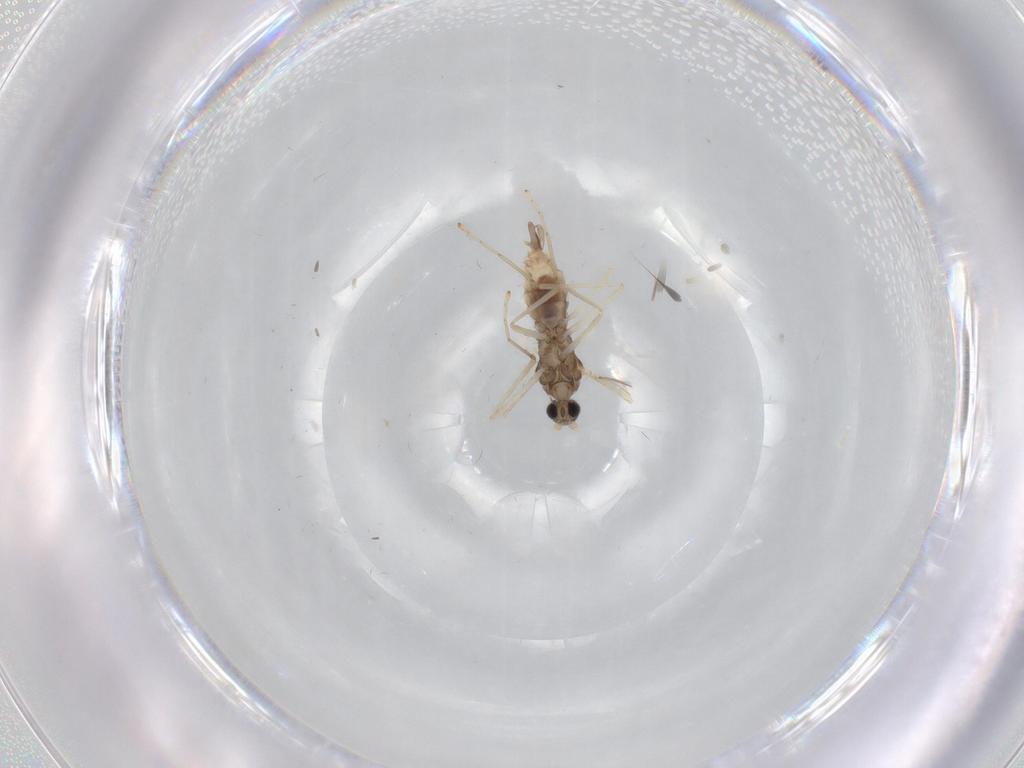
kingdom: Animalia
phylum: Arthropoda
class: Insecta
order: Diptera
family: Cecidomyiidae
